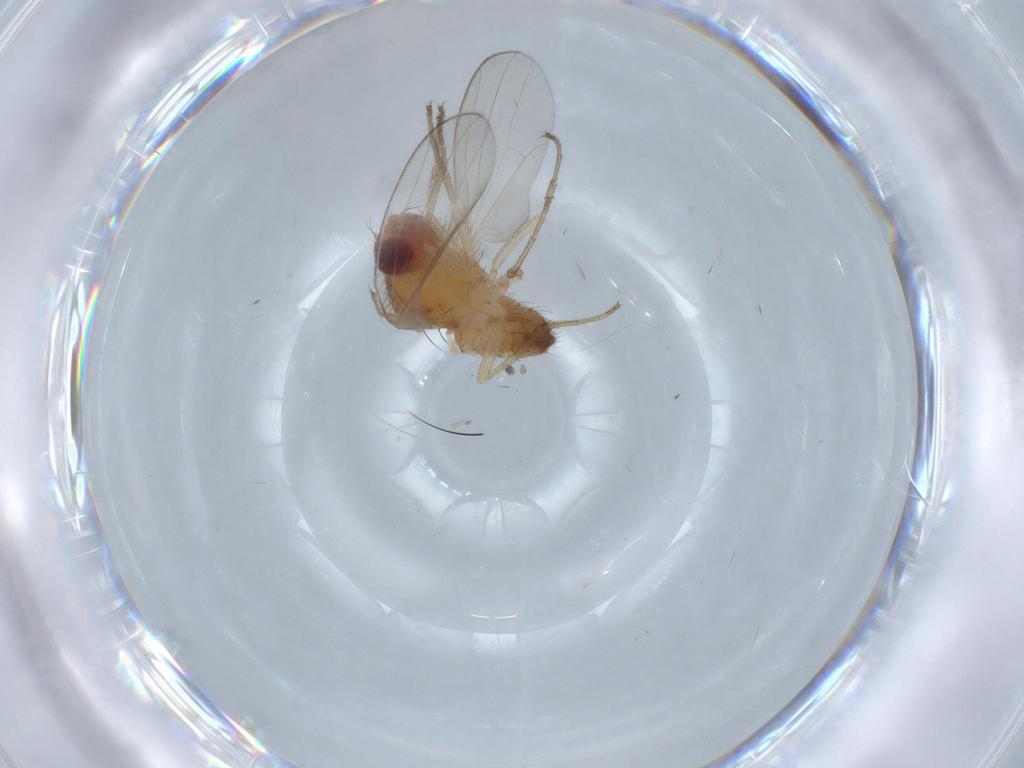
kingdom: Animalia
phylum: Arthropoda
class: Insecta
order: Diptera
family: Drosophilidae
